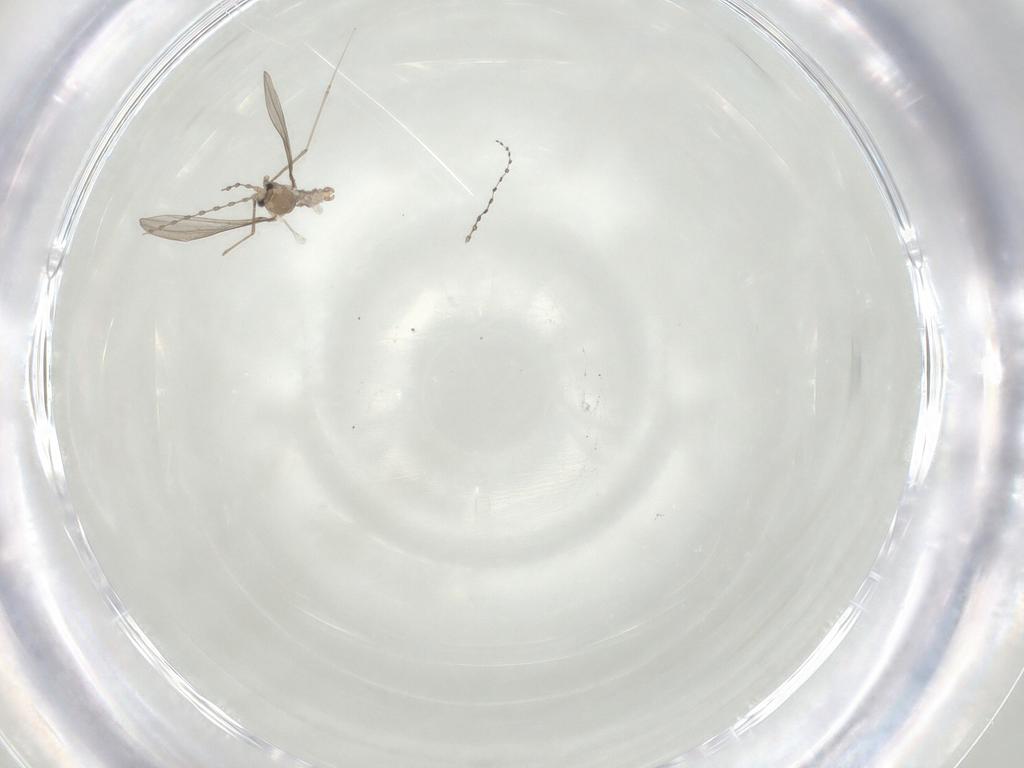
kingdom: Animalia
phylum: Arthropoda
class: Insecta
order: Diptera
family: Cecidomyiidae
